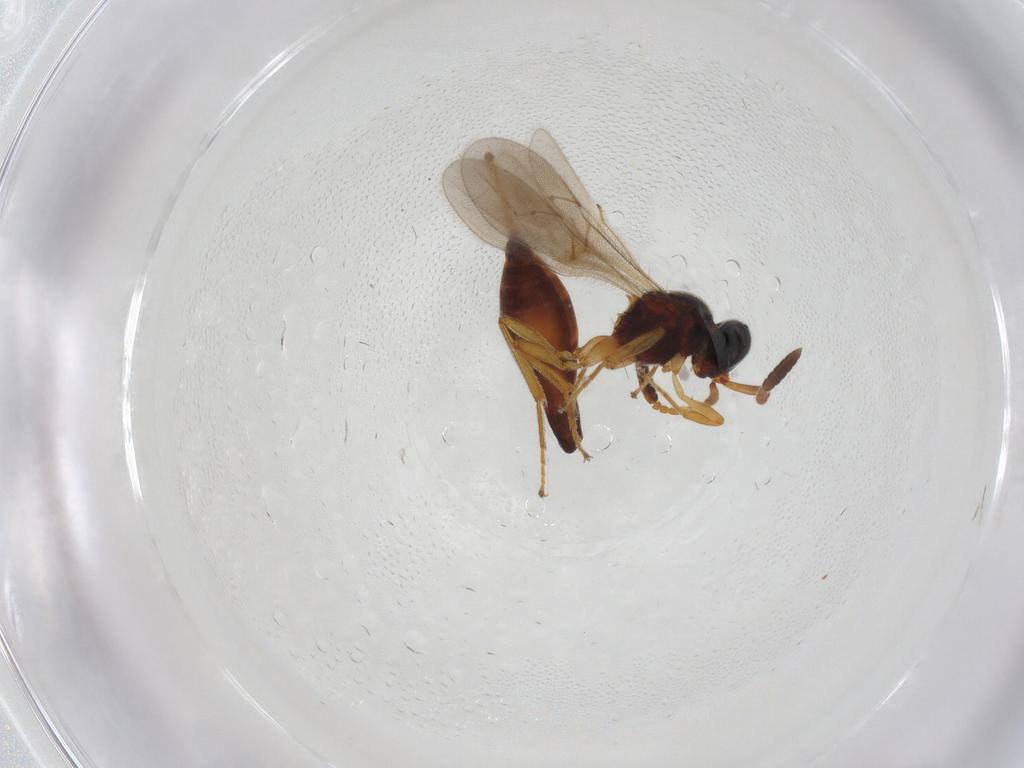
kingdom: Animalia
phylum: Arthropoda
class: Insecta
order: Hymenoptera
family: Scelionidae
